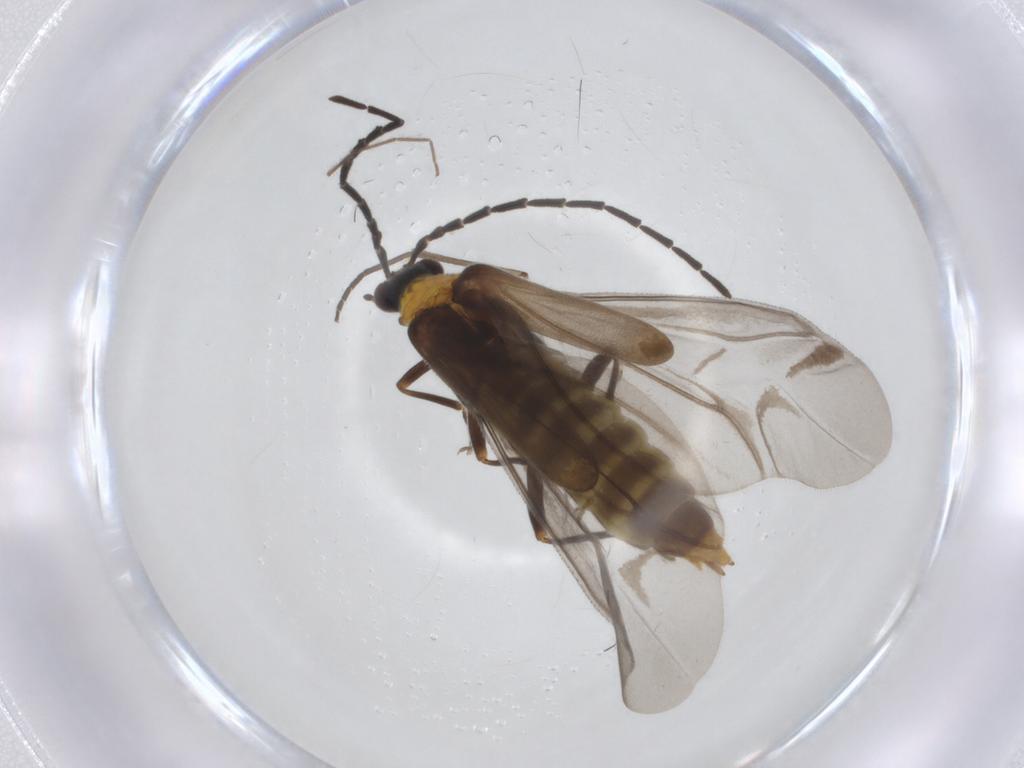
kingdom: Animalia
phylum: Arthropoda
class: Insecta
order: Coleoptera
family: Cantharidae
